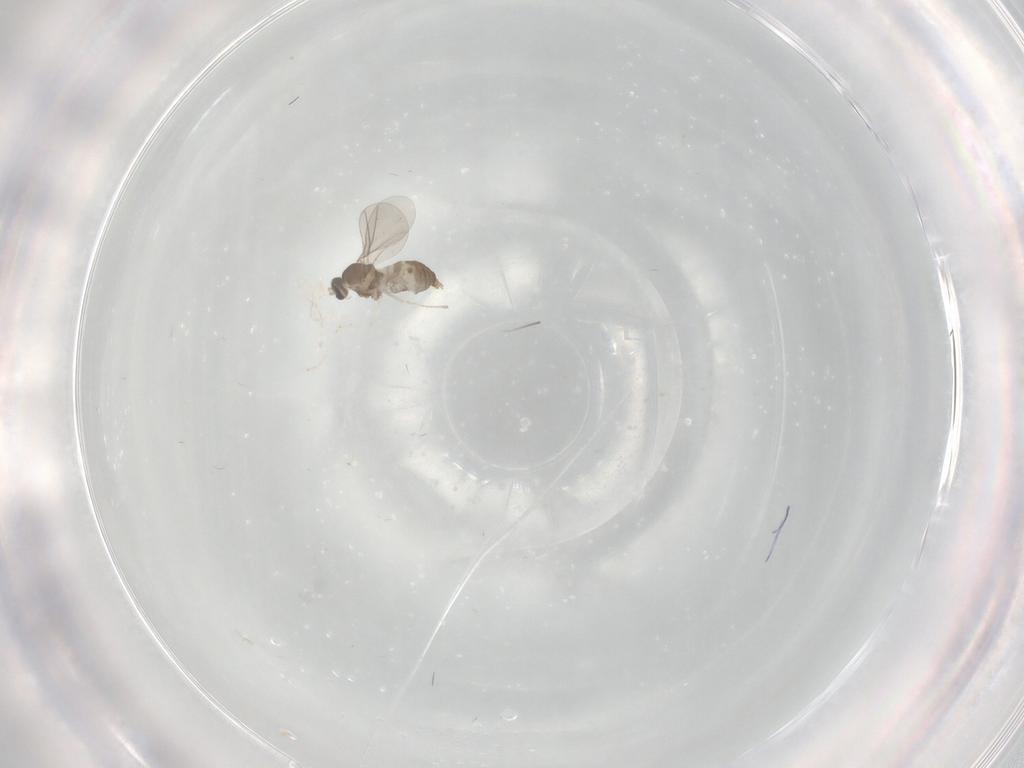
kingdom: Animalia
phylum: Arthropoda
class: Insecta
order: Diptera
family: Cecidomyiidae
